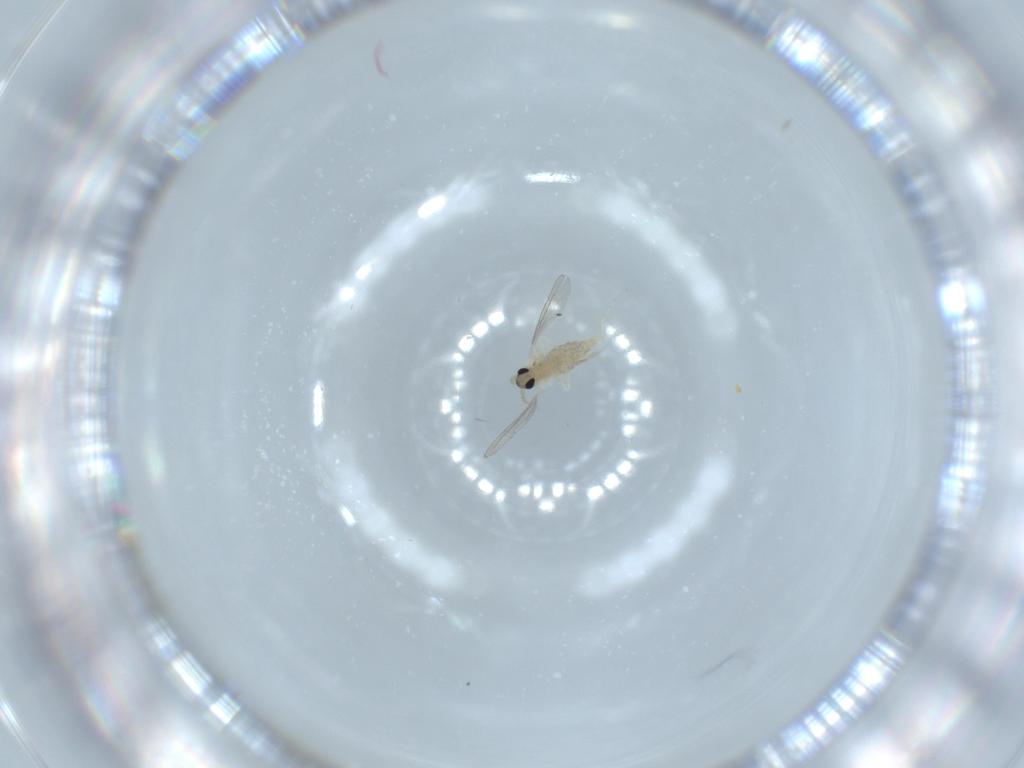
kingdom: Animalia
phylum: Arthropoda
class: Insecta
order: Diptera
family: Cecidomyiidae
